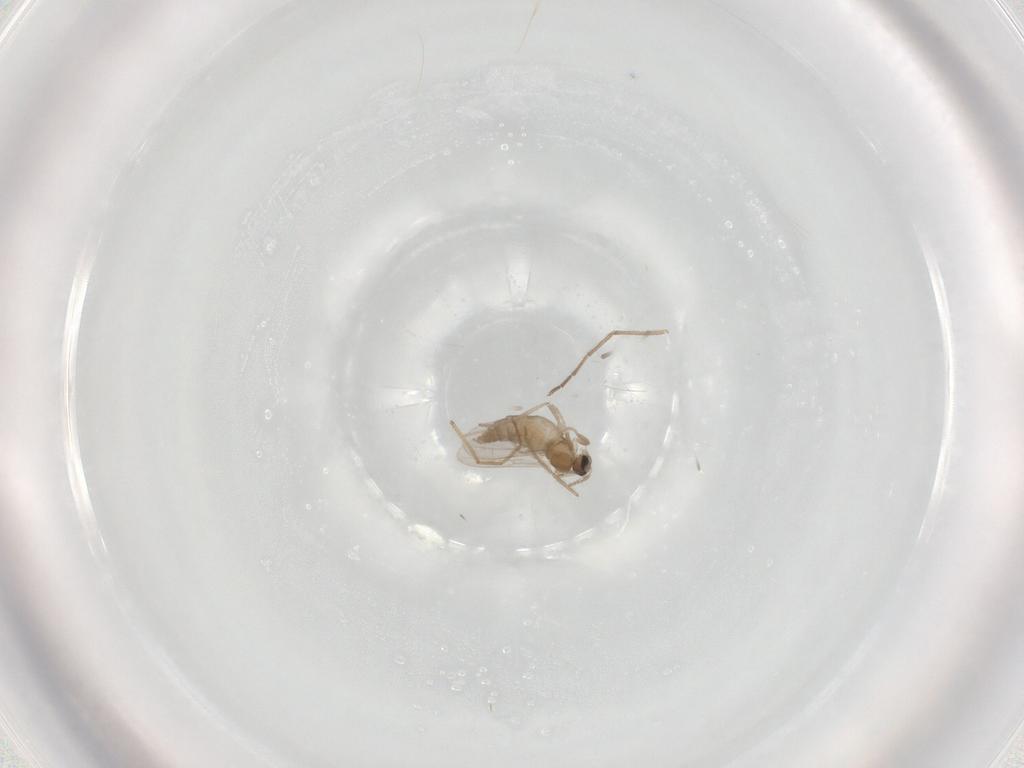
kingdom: Animalia
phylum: Arthropoda
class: Insecta
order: Diptera
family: Cecidomyiidae
